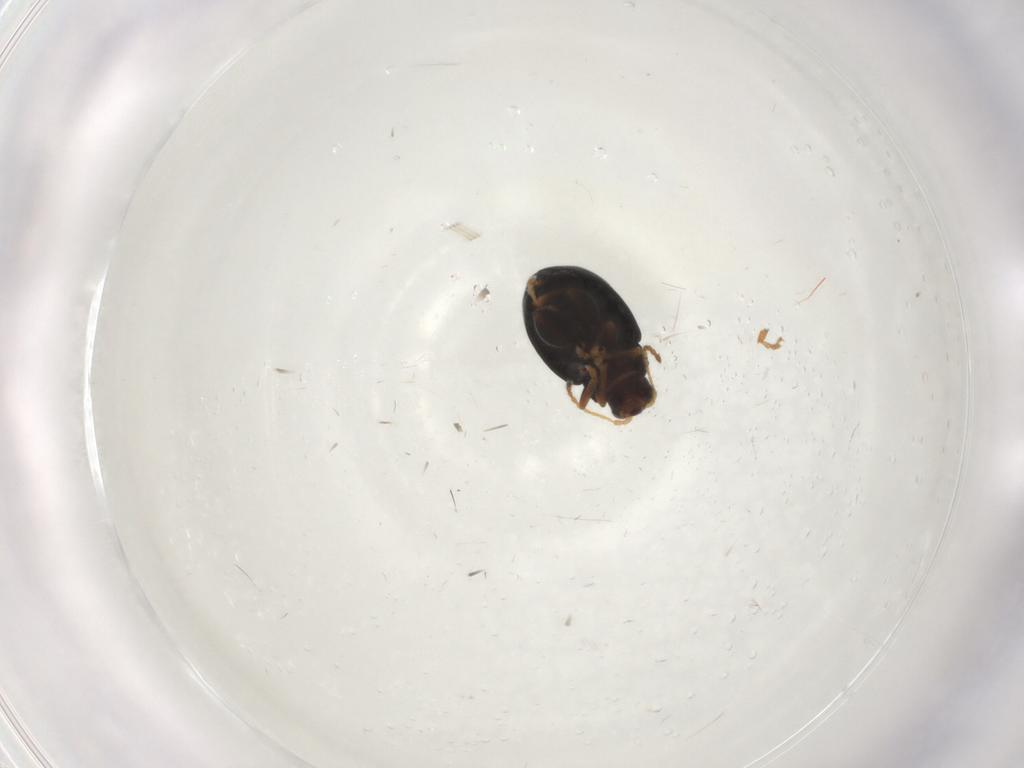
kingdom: Animalia
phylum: Arthropoda
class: Insecta
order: Coleoptera
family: Chrysomelidae
